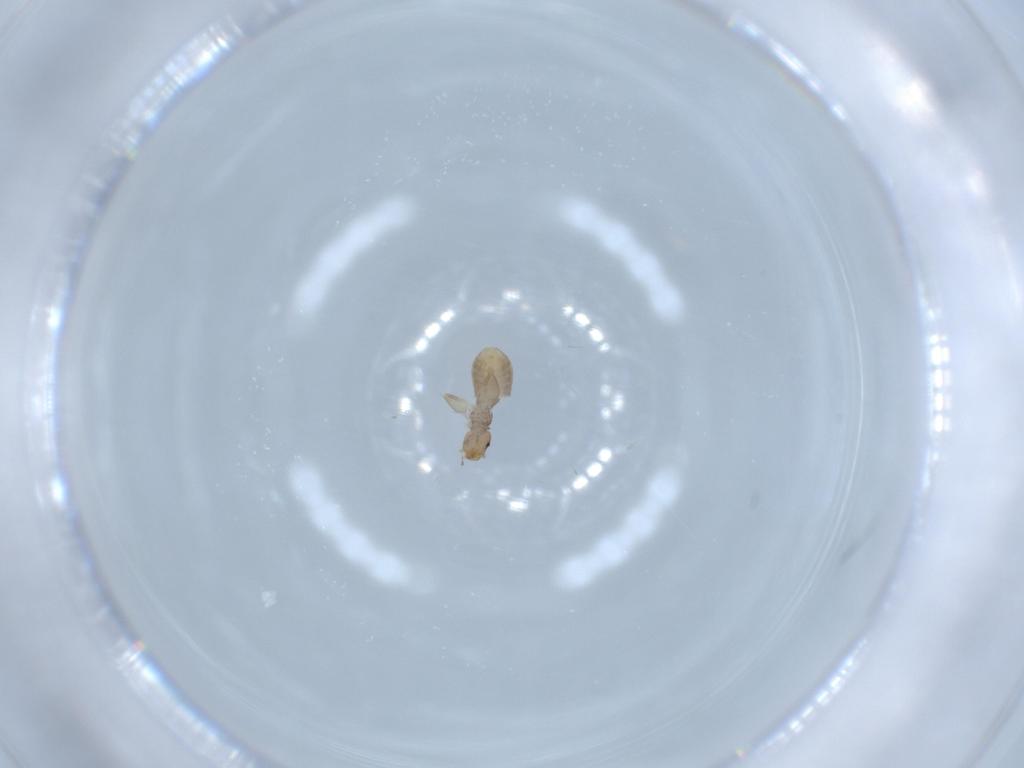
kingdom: Animalia
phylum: Arthropoda
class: Insecta
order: Psocodea
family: Liposcelididae
